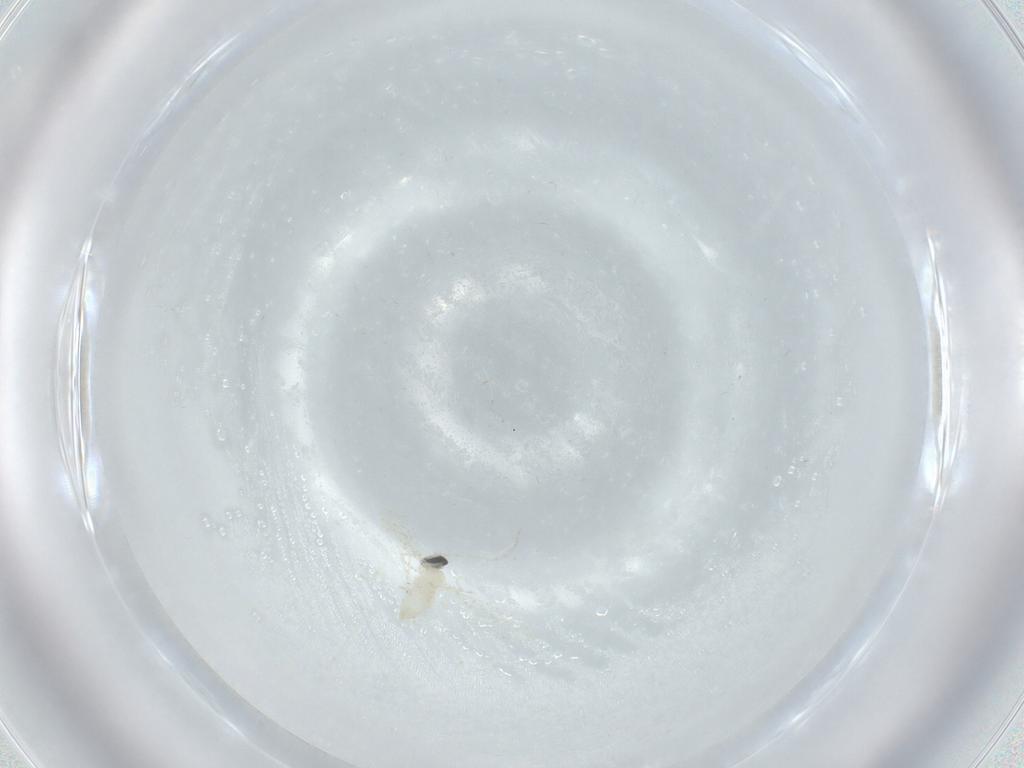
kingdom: Animalia
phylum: Arthropoda
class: Insecta
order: Diptera
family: Cecidomyiidae
